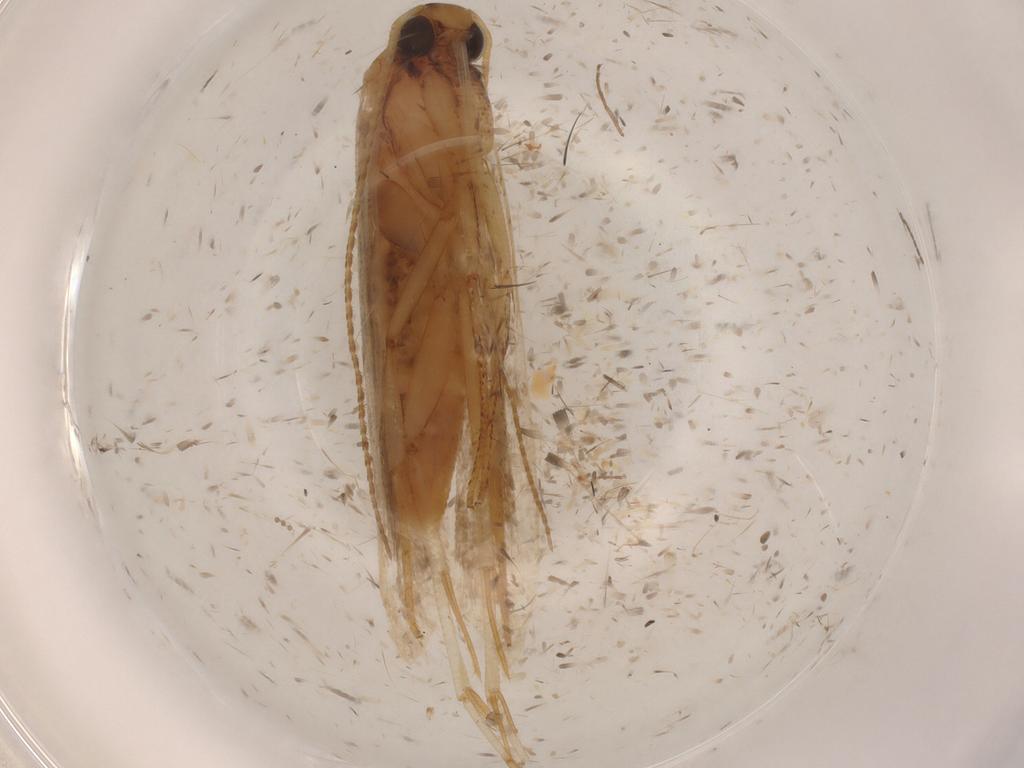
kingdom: Animalia
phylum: Arthropoda
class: Insecta
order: Lepidoptera
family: Gelechiidae
